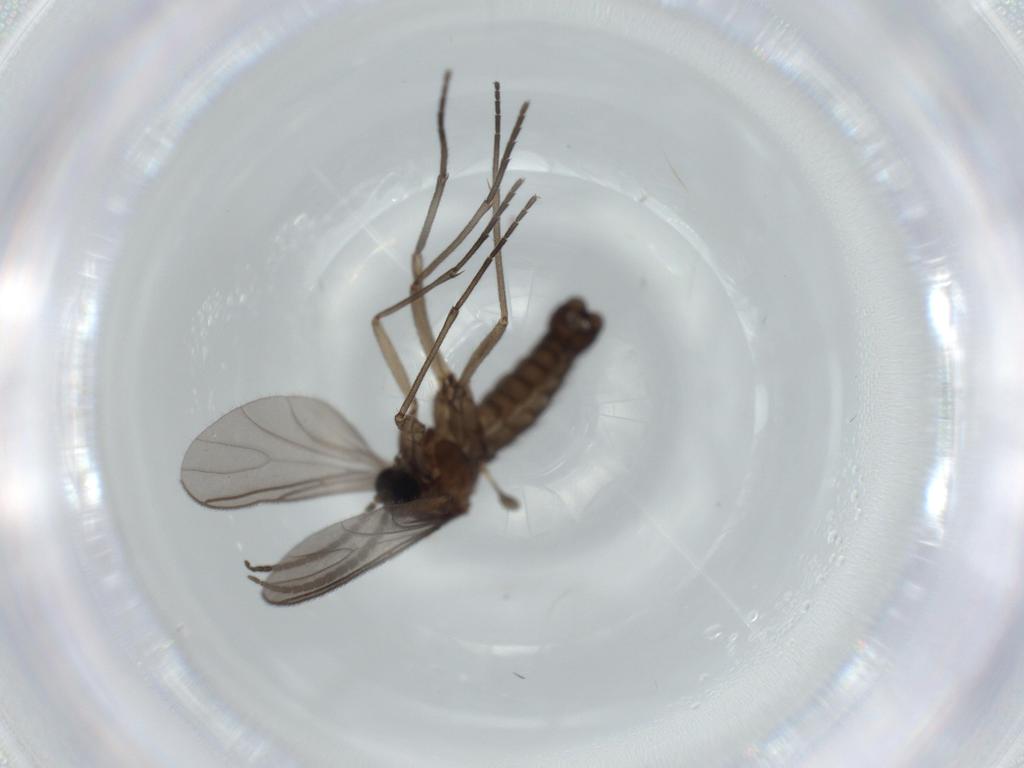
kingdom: Animalia
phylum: Arthropoda
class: Insecta
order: Diptera
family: Sciaridae
